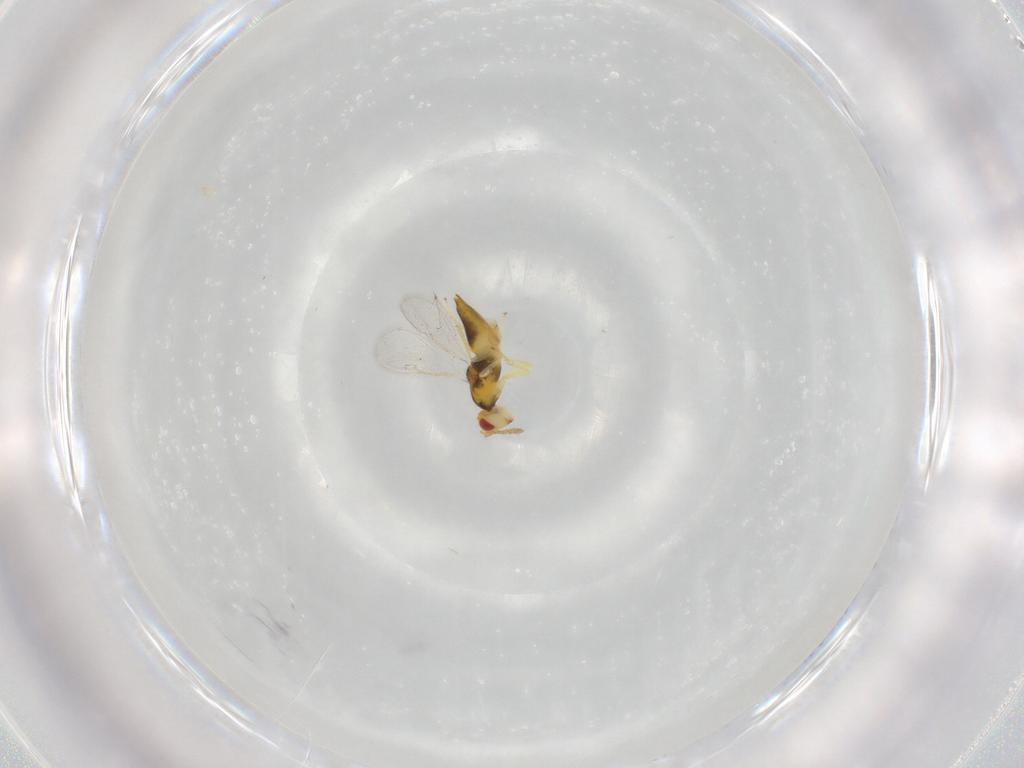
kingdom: Animalia
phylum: Arthropoda
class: Insecta
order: Hymenoptera
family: Eulophidae
